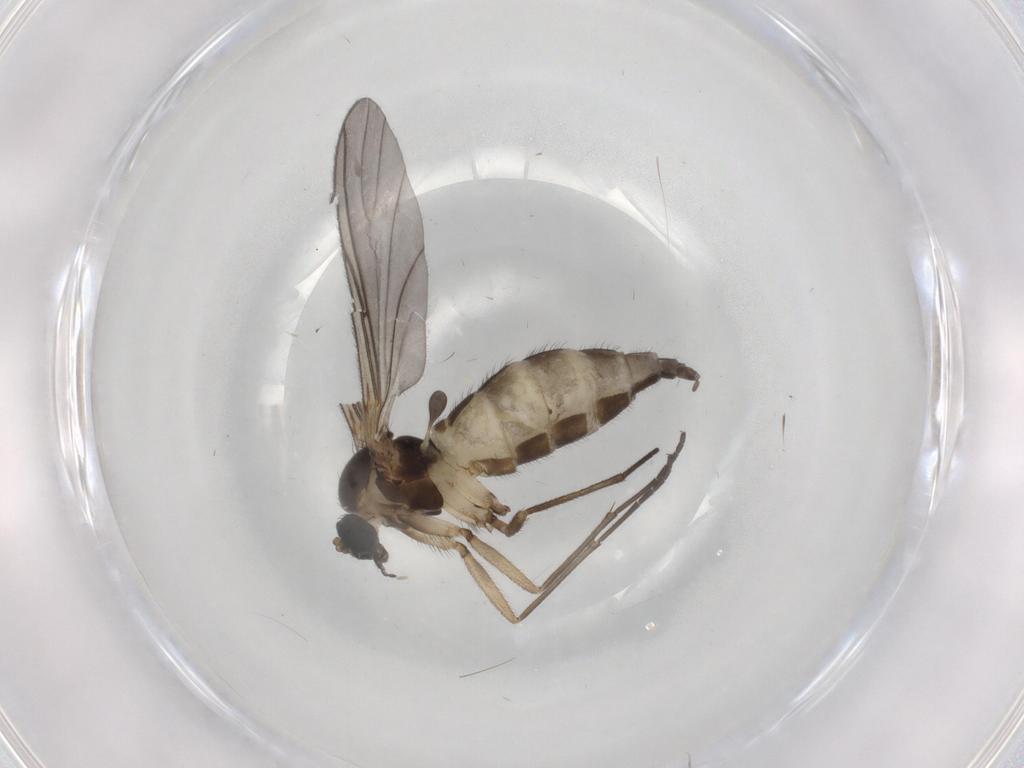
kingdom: Animalia
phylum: Arthropoda
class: Insecta
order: Diptera
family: Sciaridae
